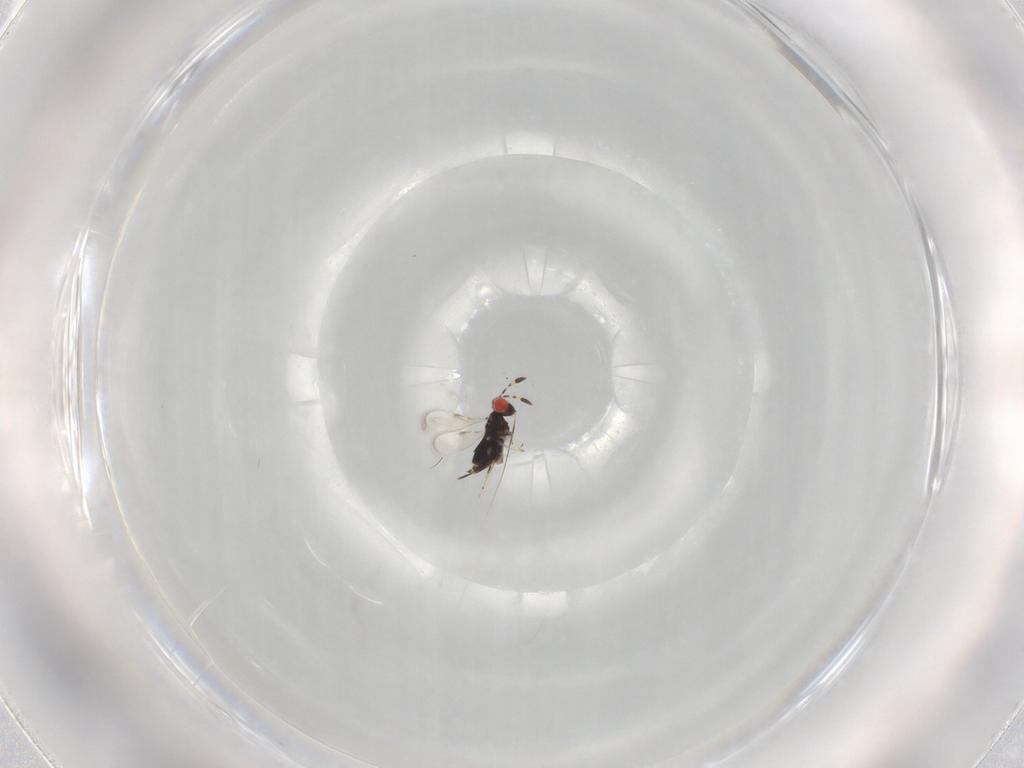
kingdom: Animalia
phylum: Arthropoda
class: Insecta
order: Hymenoptera
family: Azotidae
